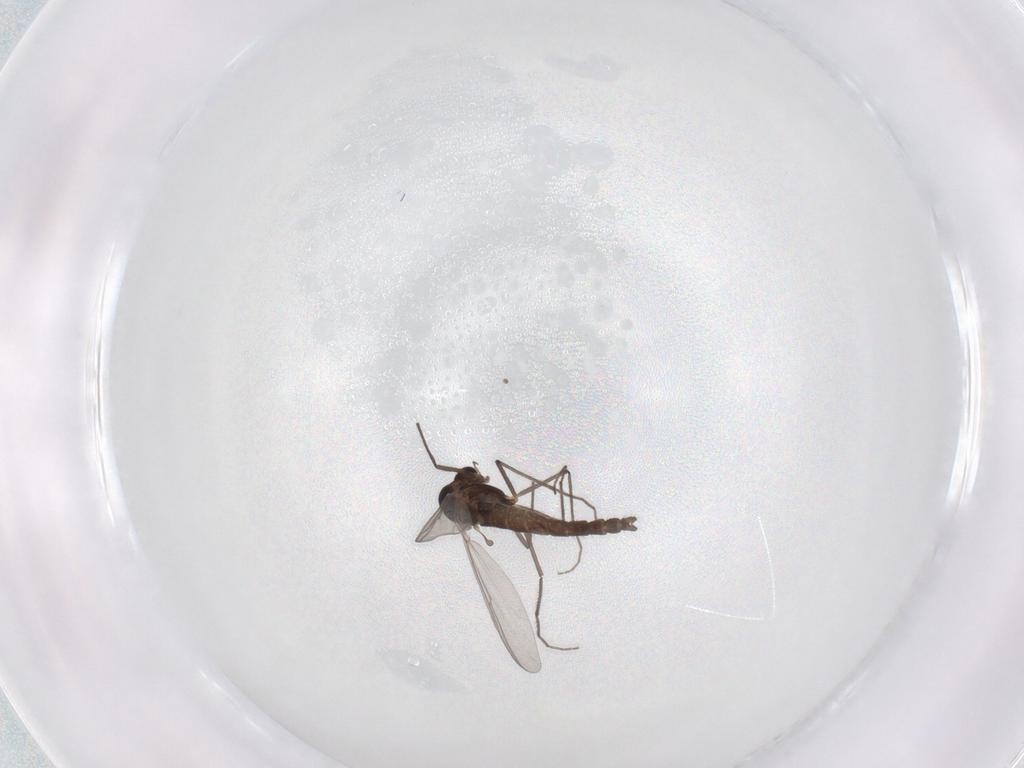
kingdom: Animalia
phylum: Arthropoda
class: Insecta
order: Diptera
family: Chironomidae
